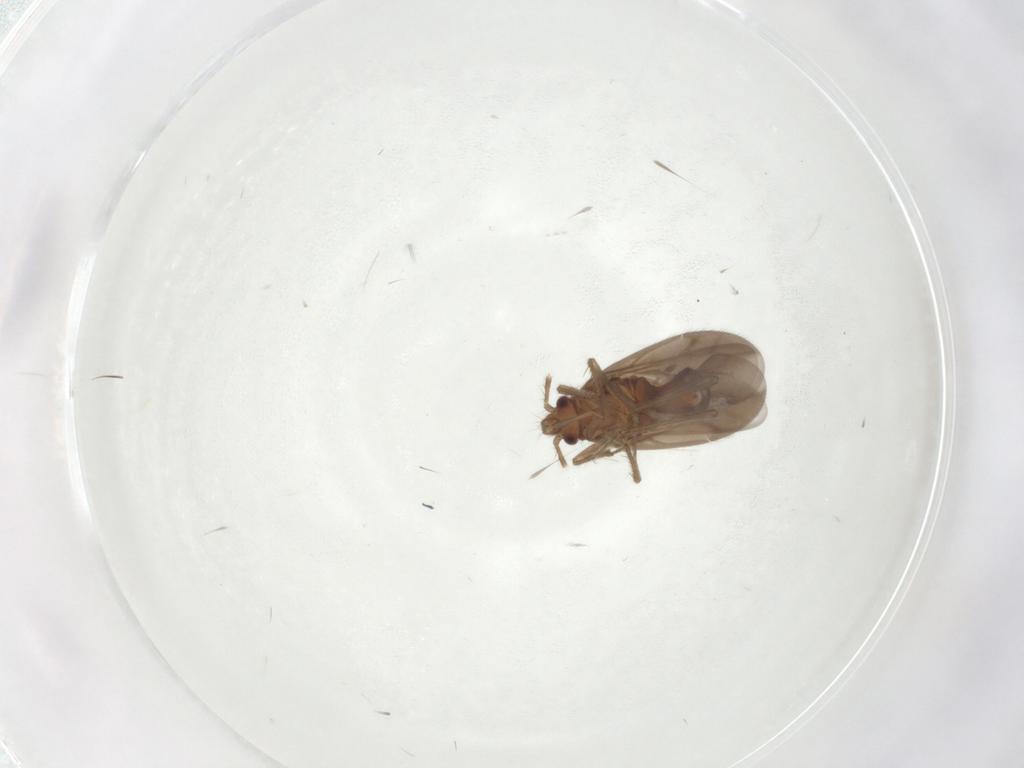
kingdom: Animalia
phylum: Arthropoda
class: Insecta
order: Hemiptera
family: Ceratocombidae
